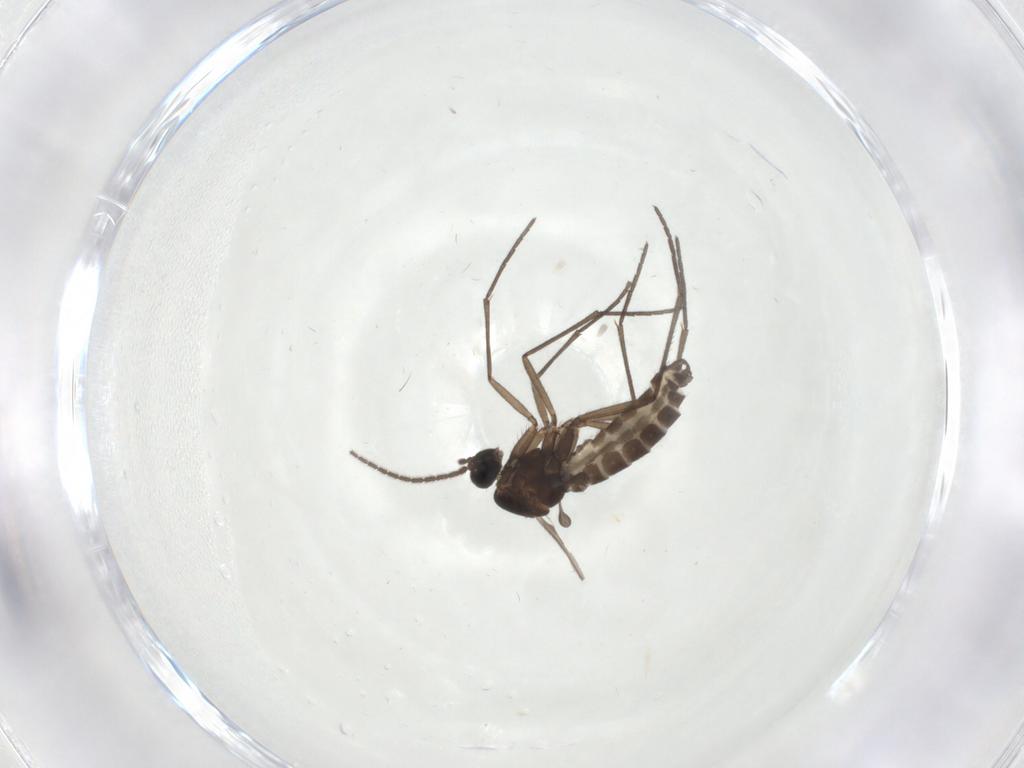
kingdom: Animalia
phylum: Arthropoda
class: Insecta
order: Diptera
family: Sciaridae
